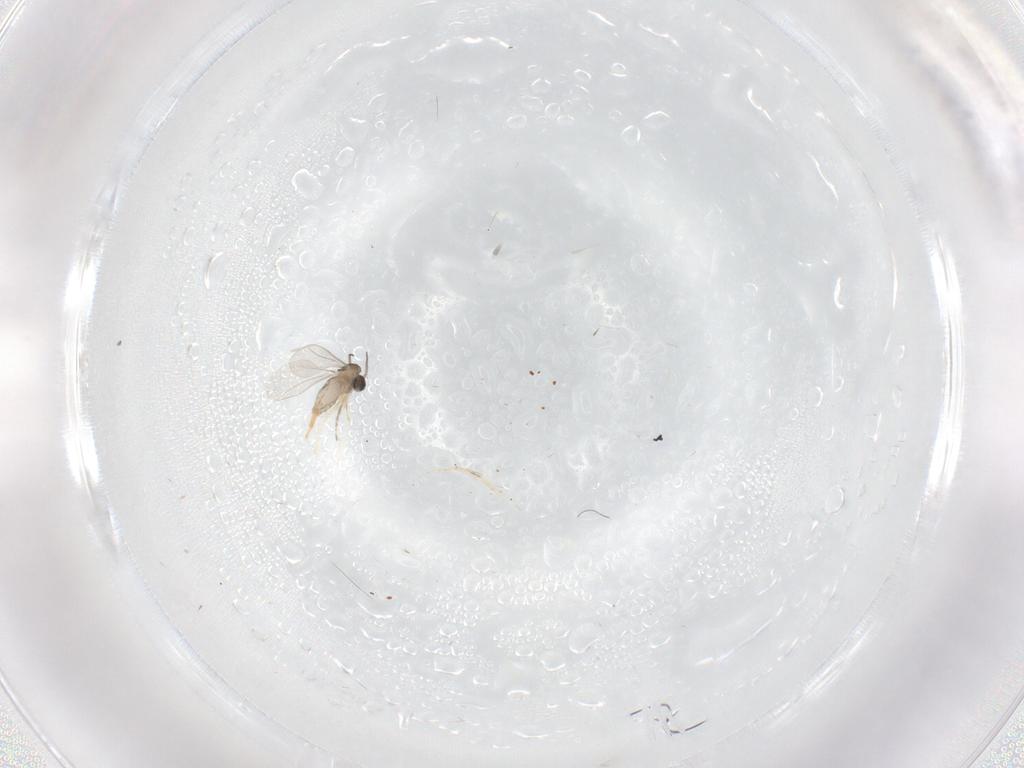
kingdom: Animalia
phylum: Arthropoda
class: Insecta
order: Diptera
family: Cecidomyiidae
